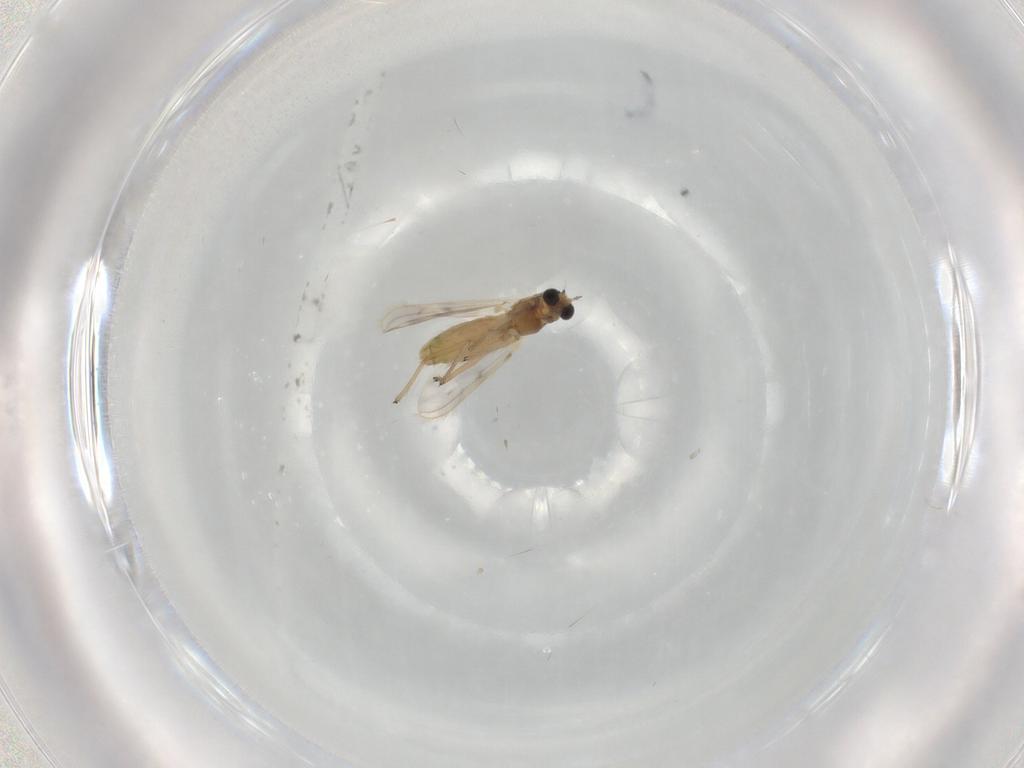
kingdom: Animalia
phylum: Arthropoda
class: Insecta
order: Diptera
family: Chironomidae
